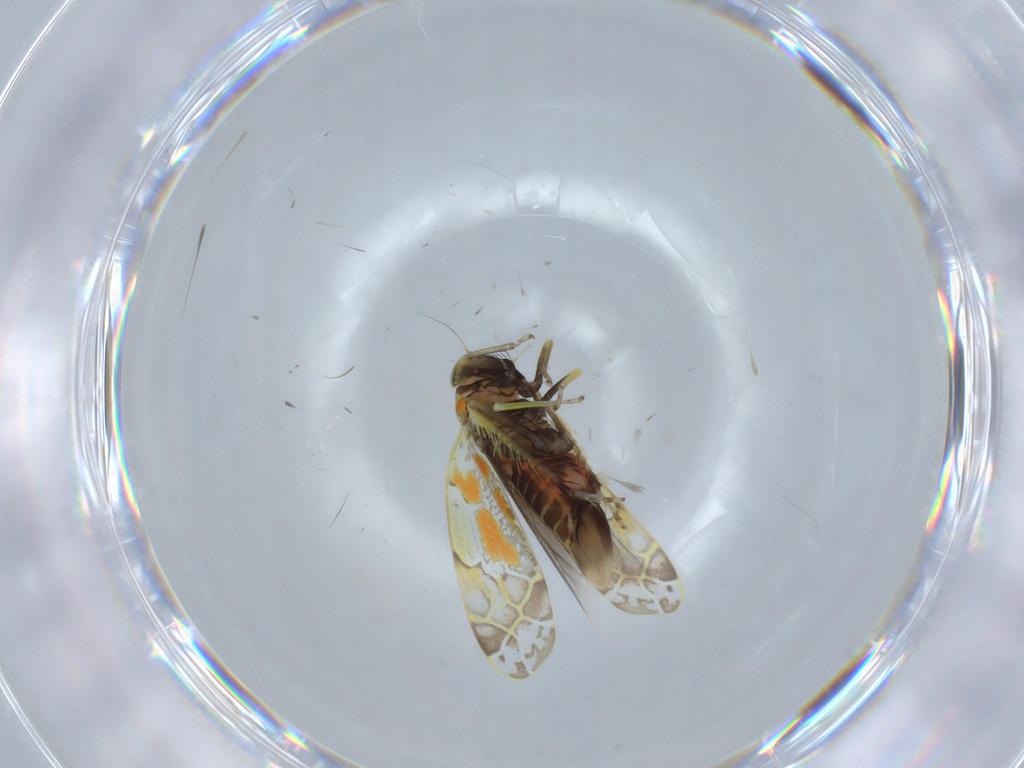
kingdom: Animalia
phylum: Arthropoda
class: Insecta
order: Hemiptera
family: Cicadellidae
